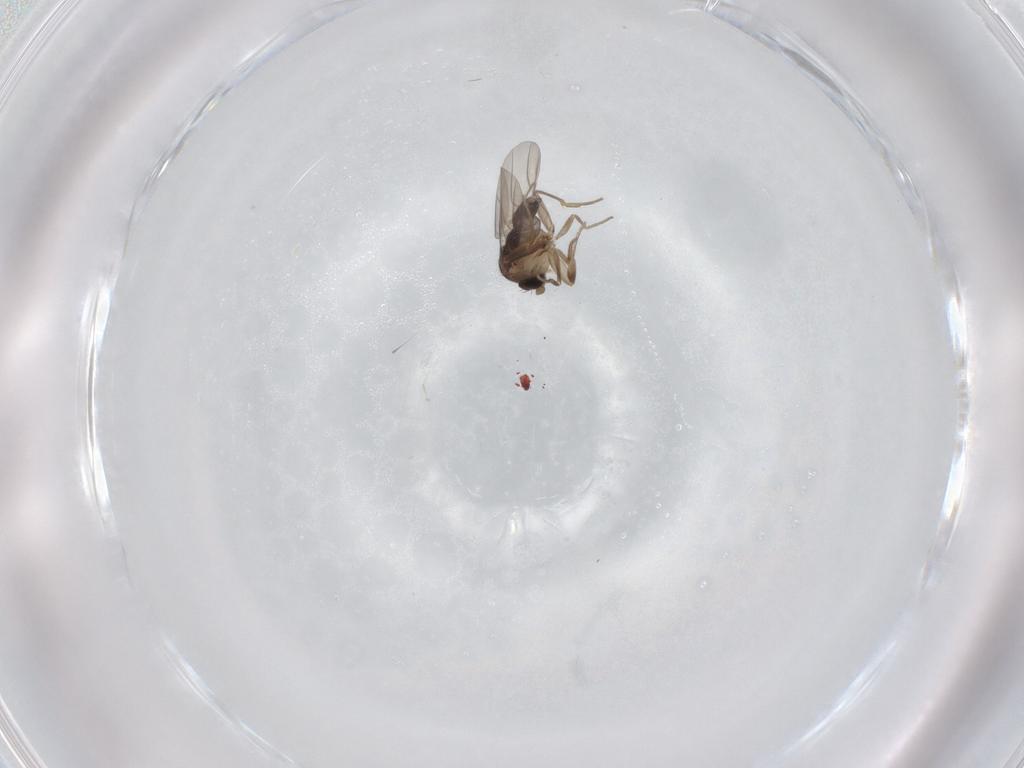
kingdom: Animalia
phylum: Arthropoda
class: Insecta
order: Diptera
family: Phoridae
